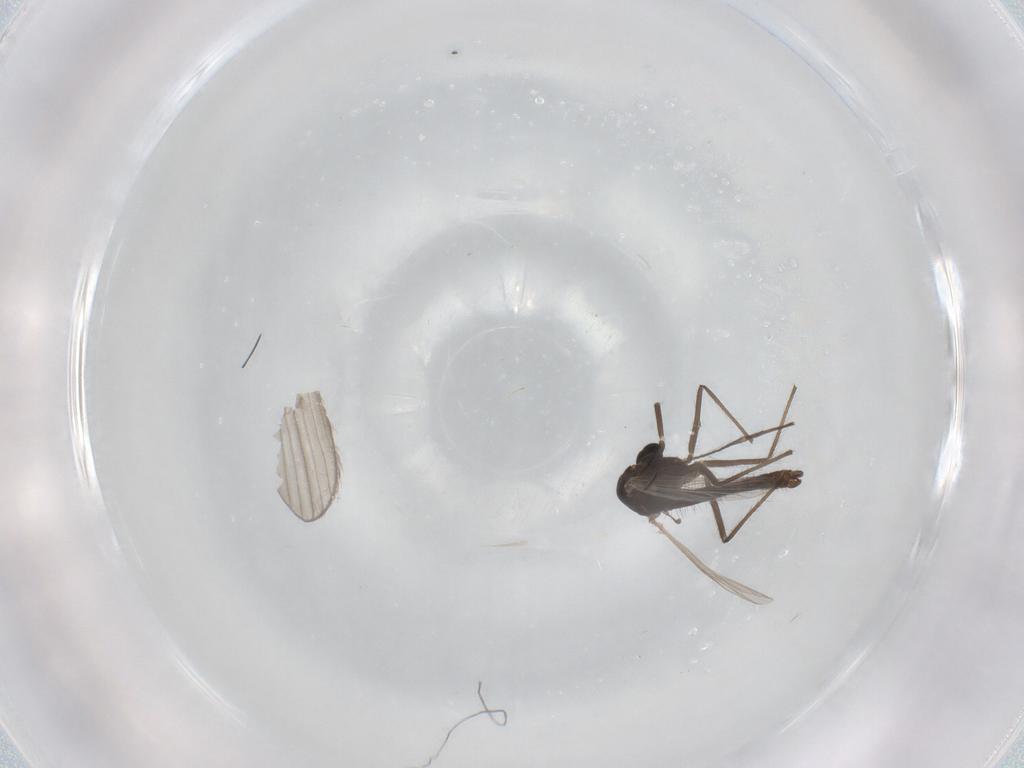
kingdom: Animalia
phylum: Arthropoda
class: Insecta
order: Diptera
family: Chironomidae
